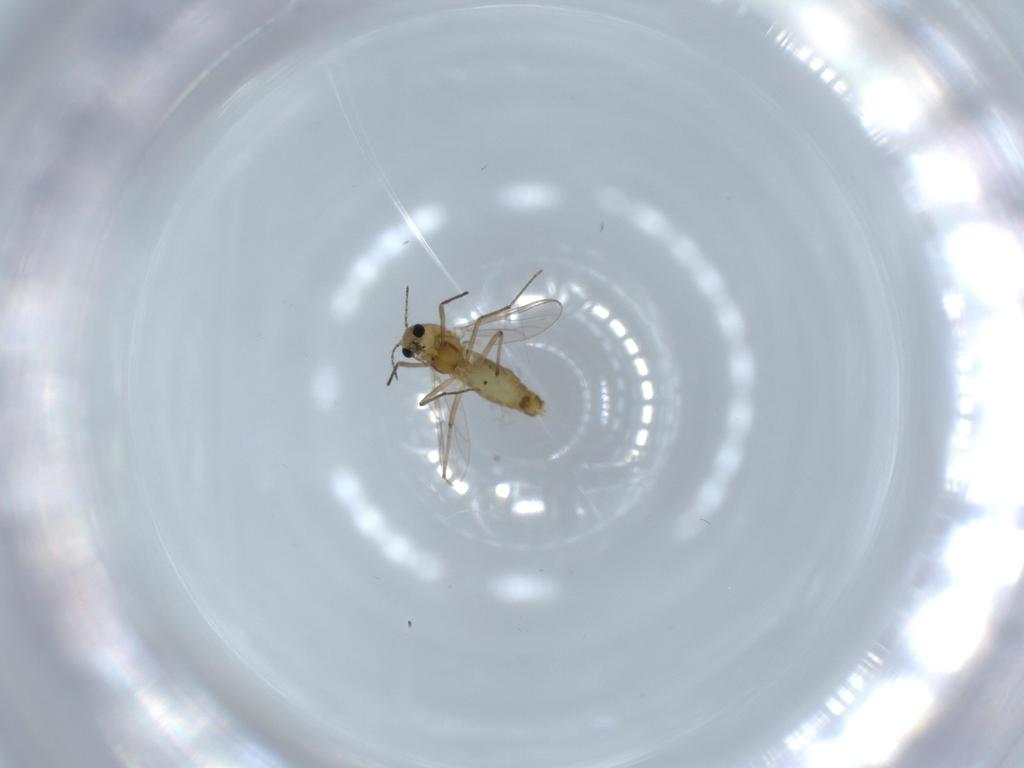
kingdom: Animalia
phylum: Arthropoda
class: Insecta
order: Diptera
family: Chironomidae
